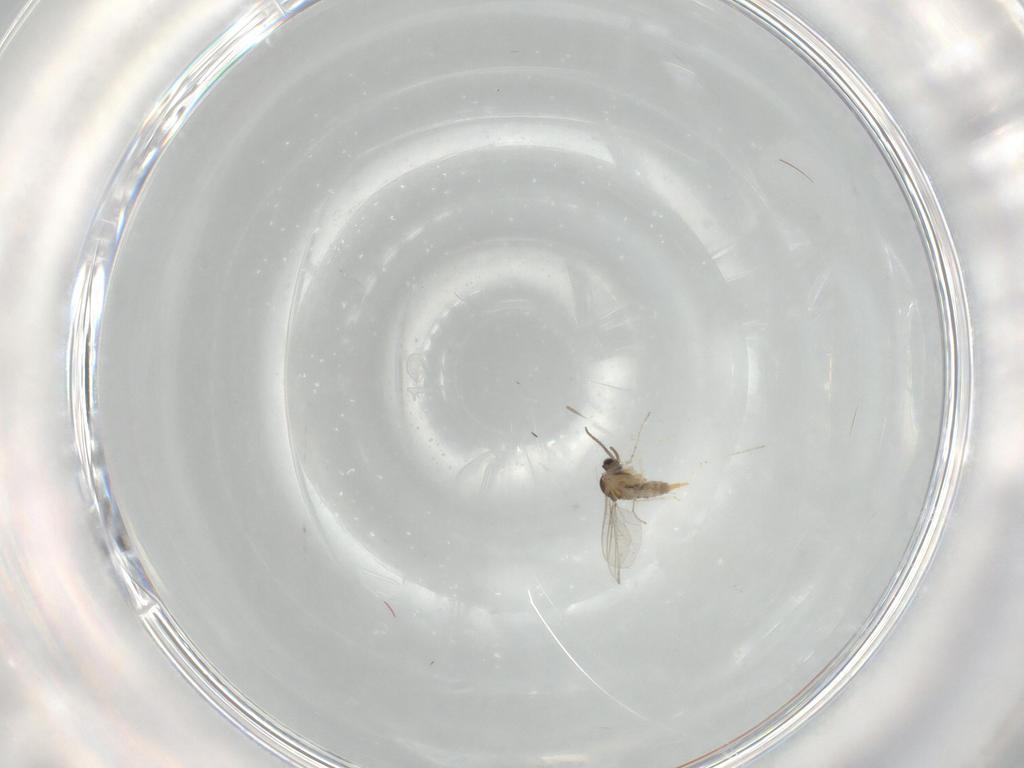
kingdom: Animalia
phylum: Arthropoda
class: Insecta
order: Diptera
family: Cecidomyiidae
